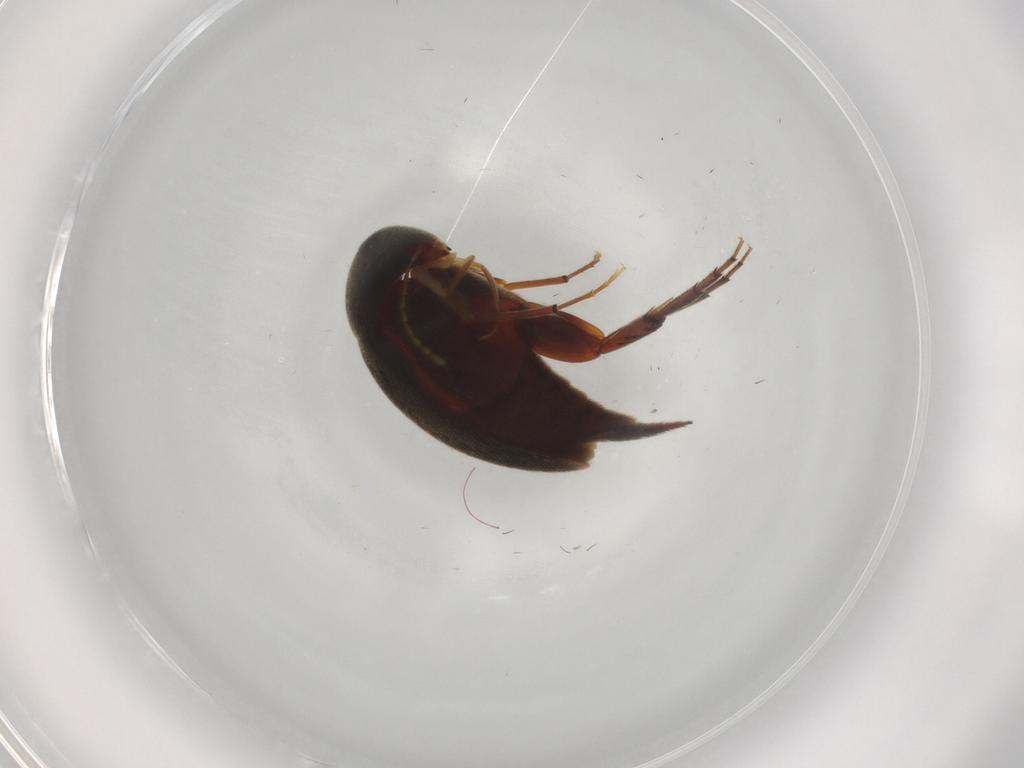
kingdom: Animalia
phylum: Arthropoda
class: Insecta
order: Coleoptera
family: Mordellidae
